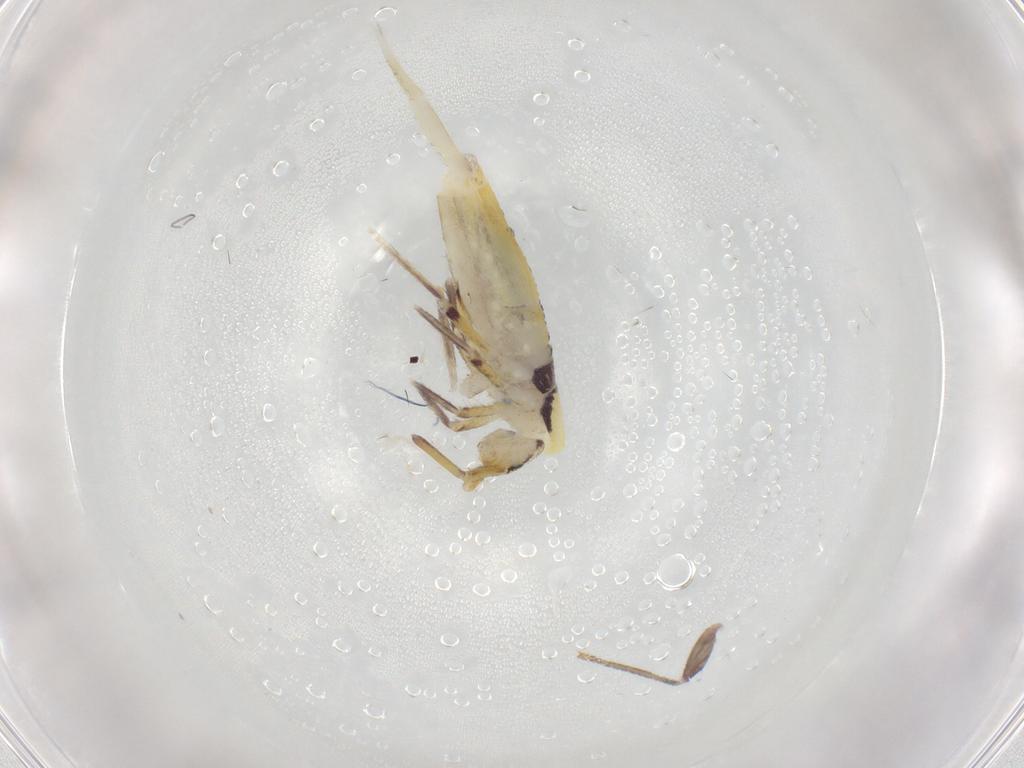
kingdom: Animalia
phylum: Arthropoda
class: Collembola
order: Entomobryomorpha
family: Entomobryidae
